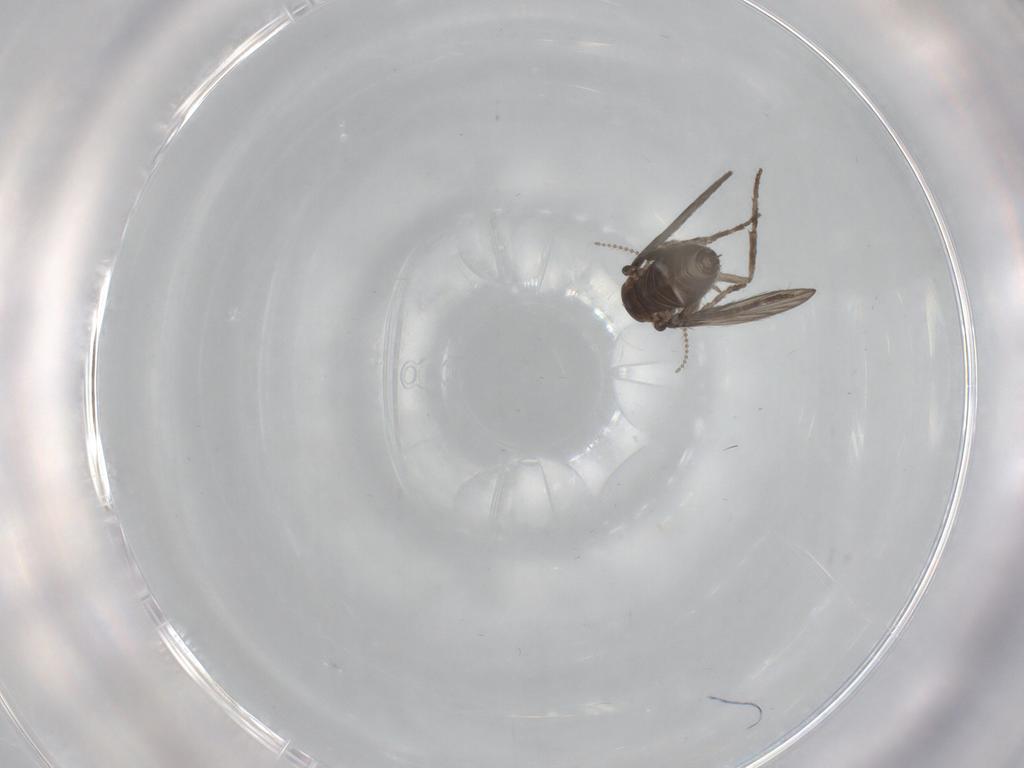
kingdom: Animalia
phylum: Arthropoda
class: Insecta
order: Diptera
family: Psychodidae
